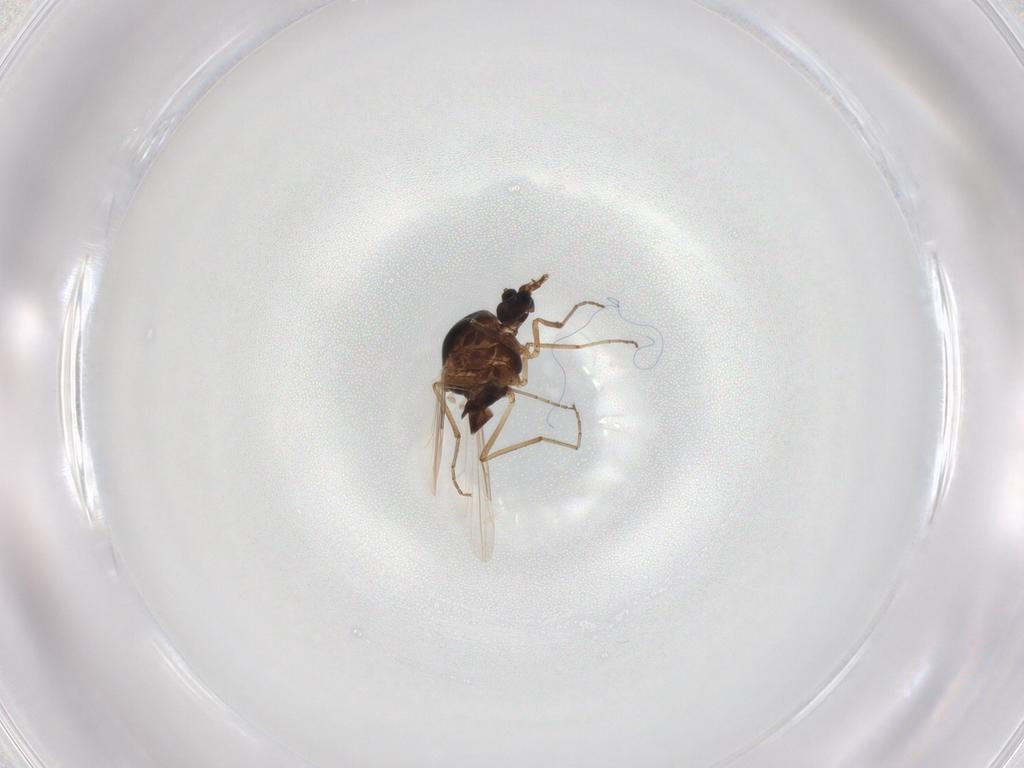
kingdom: Animalia
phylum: Arthropoda
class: Insecta
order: Diptera
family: Ceratopogonidae
